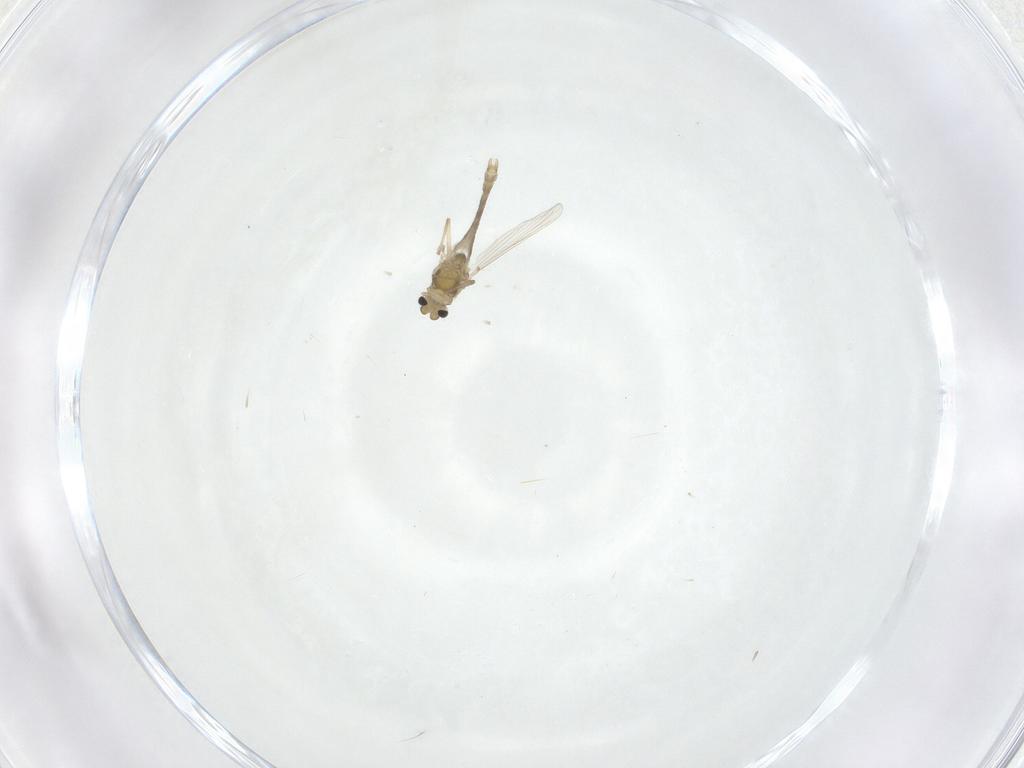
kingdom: Animalia
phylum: Arthropoda
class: Insecta
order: Diptera
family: Chironomidae
